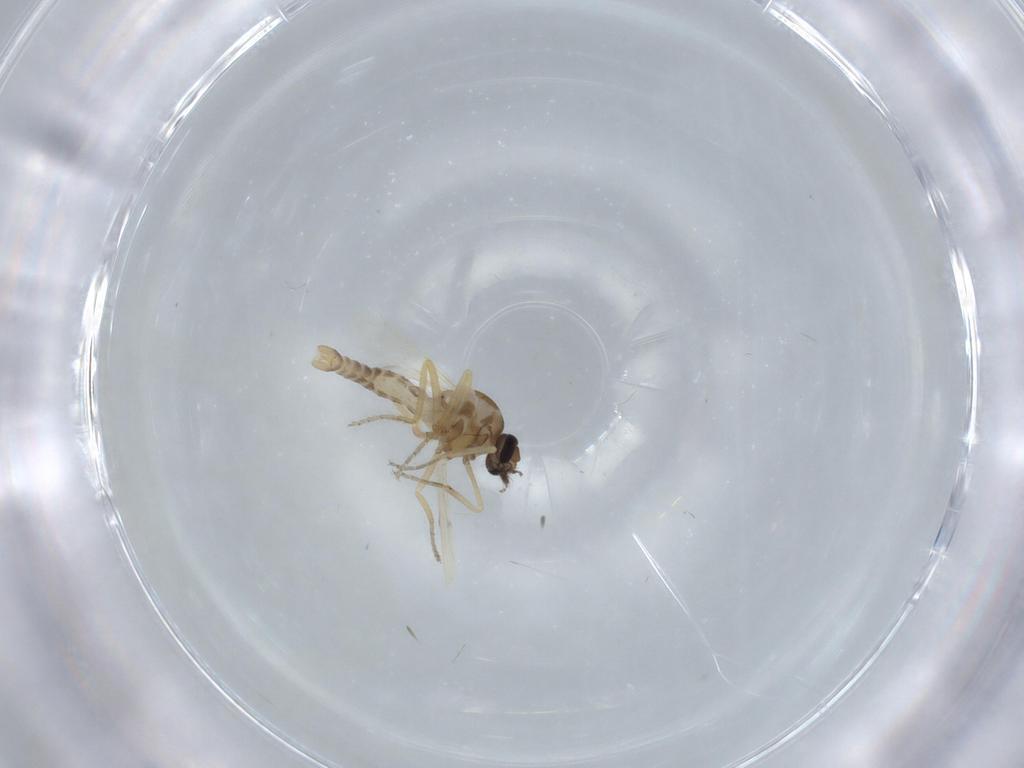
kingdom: Animalia
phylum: Arthropoda
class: Insecta
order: Diptera
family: Ceratopogonidae
